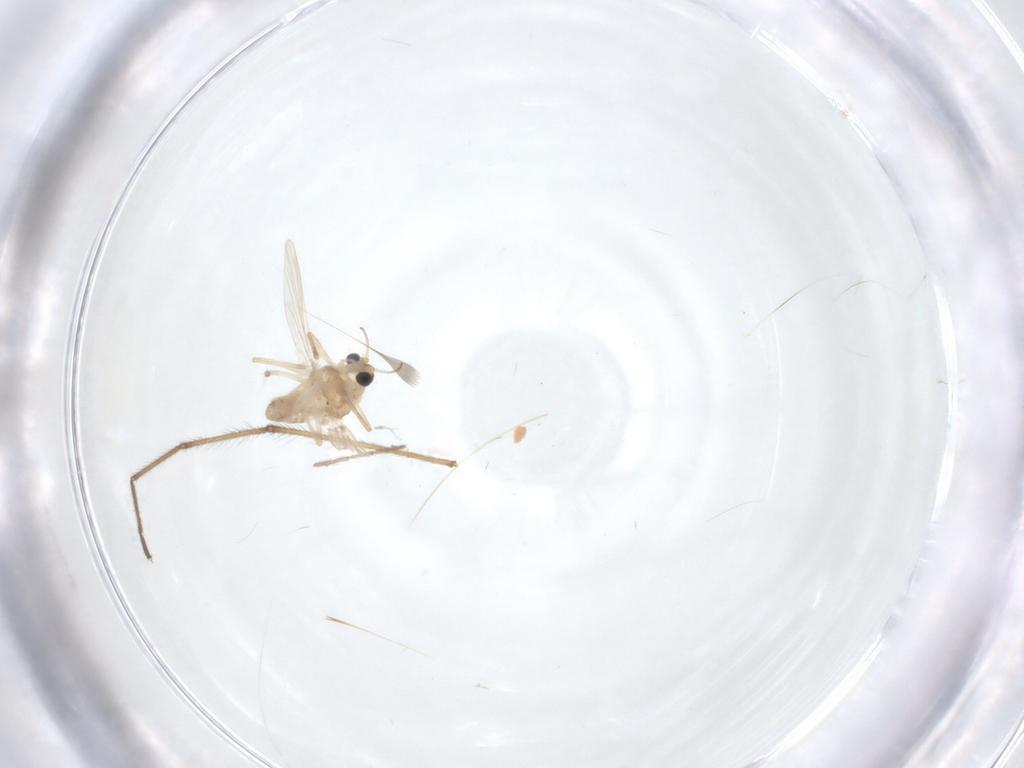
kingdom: Animalia
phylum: Arthropoda
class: Insecta
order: Diptera
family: Chironomidae
